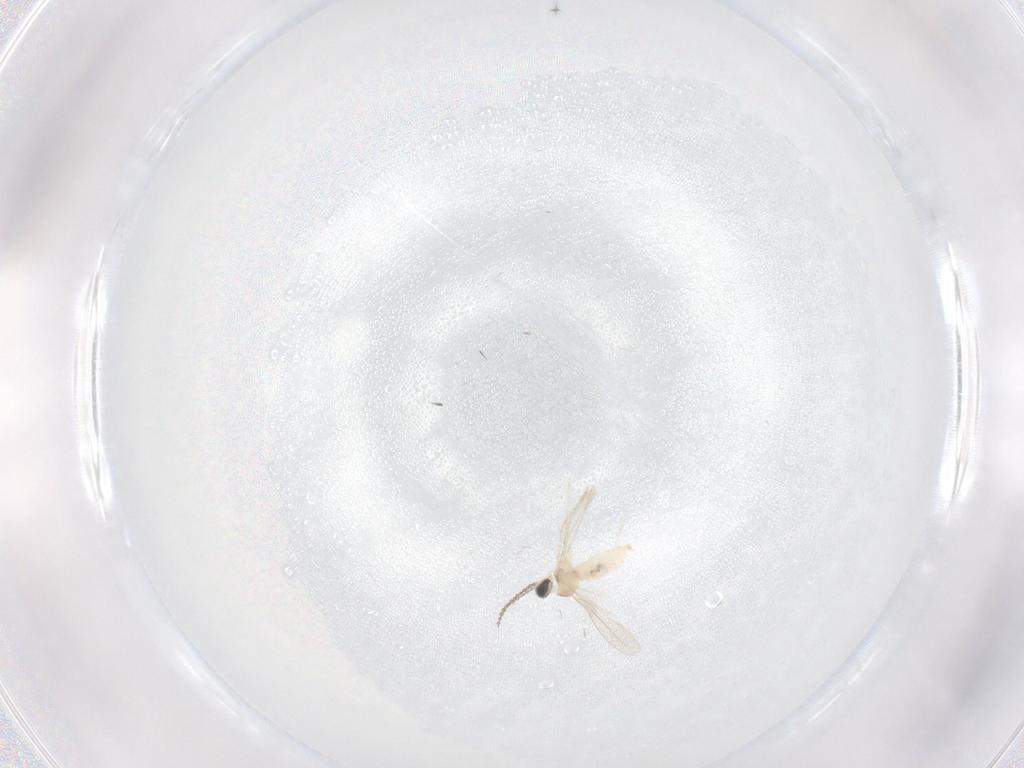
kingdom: Animalia
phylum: Arthropoda
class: Insecta
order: Diptera
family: Cecidomyiidae
